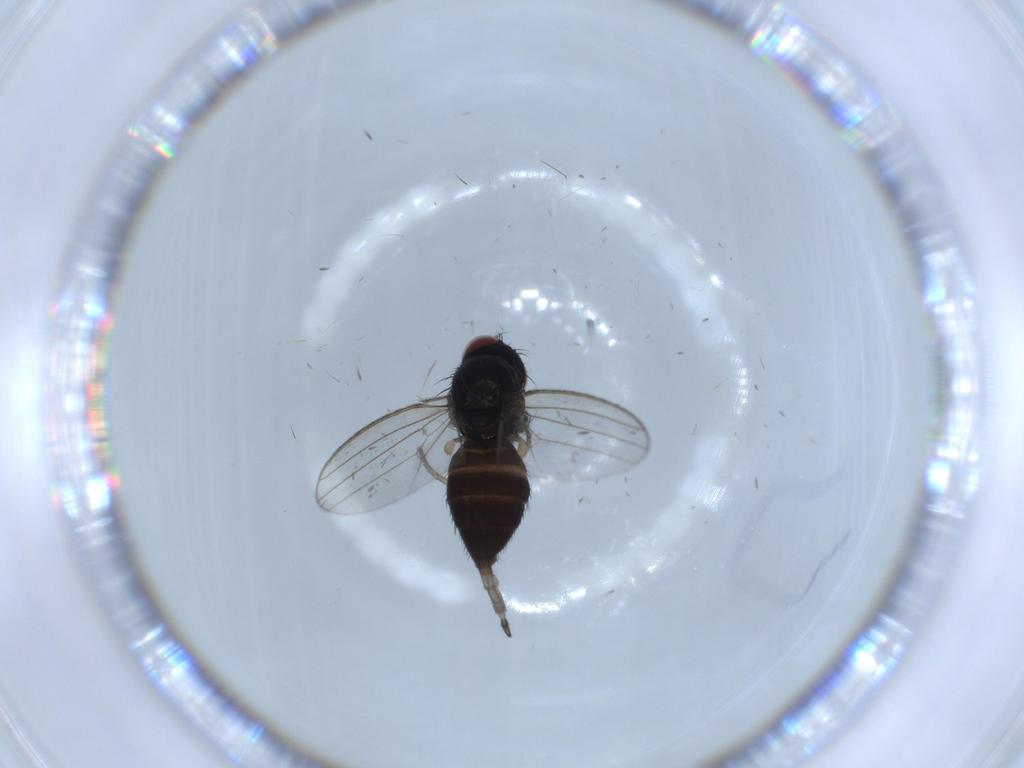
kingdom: Animalia
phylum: Arthropoda
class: Insecta
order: Diptera
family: Milichiidae
